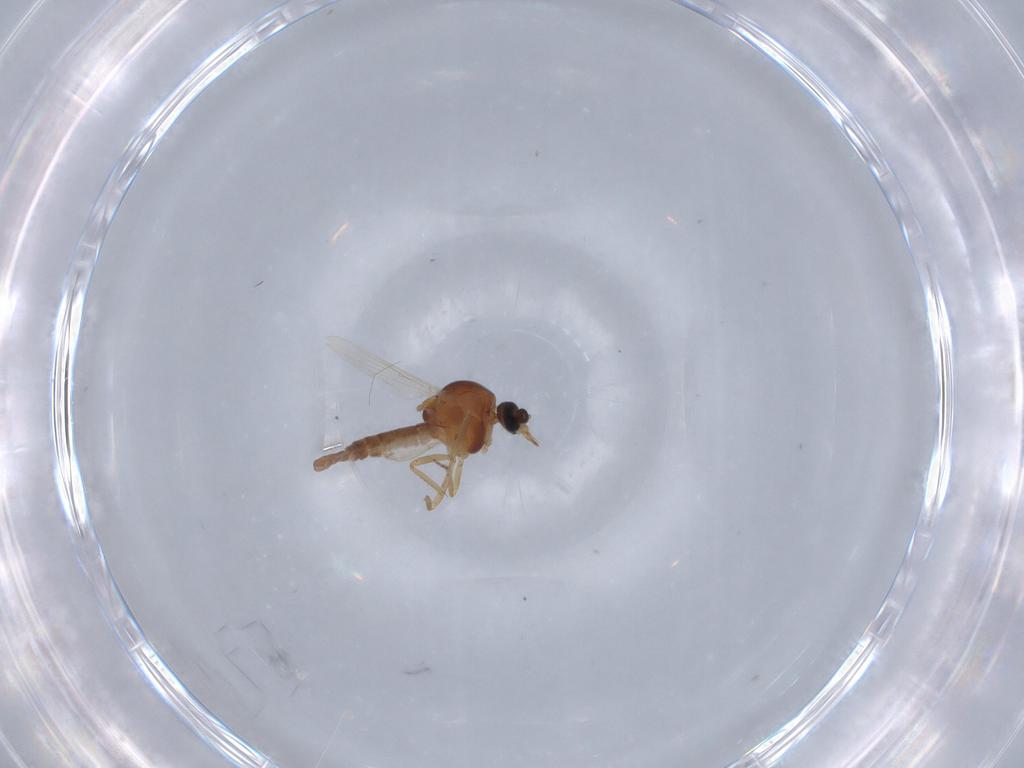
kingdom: Animalia
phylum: Arthropoda
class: Insecta
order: Diptera
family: Ceratopogonidae
